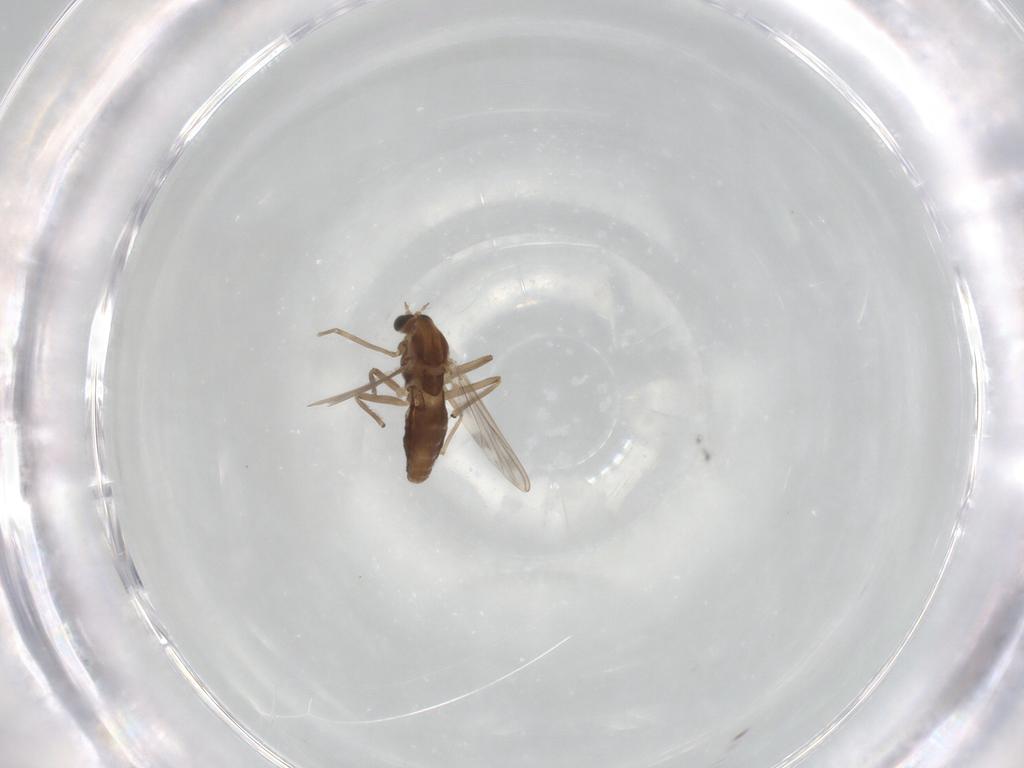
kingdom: Animalia
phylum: Arthropoda
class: Insecta
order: Diptera
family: Chironomidae
